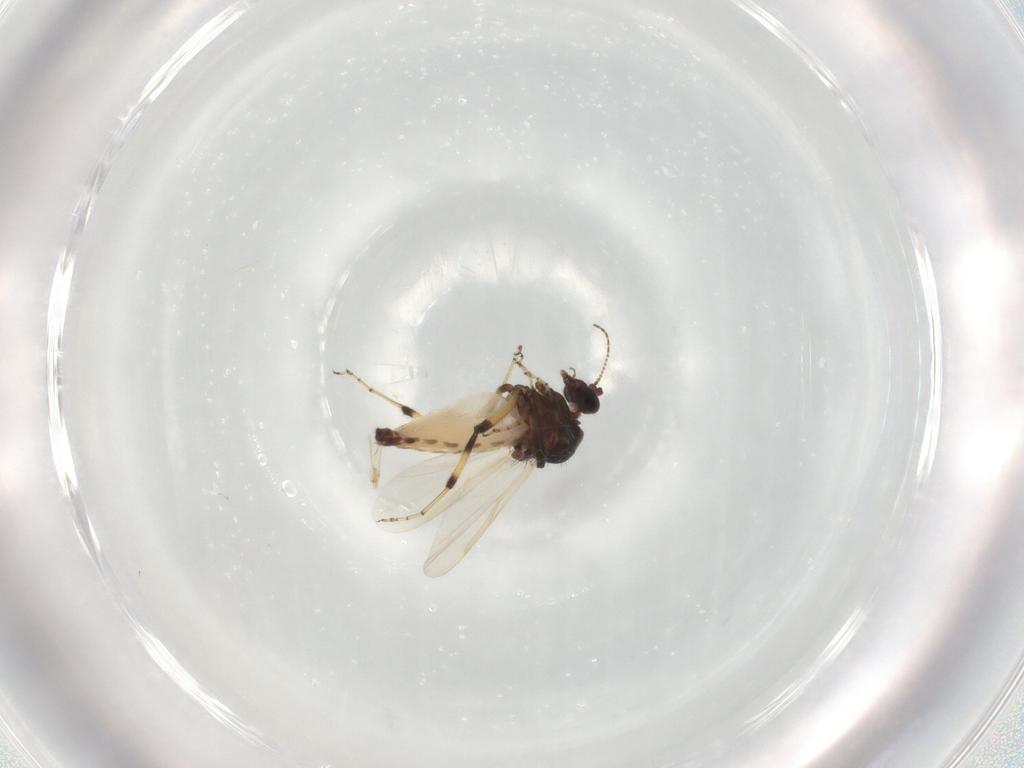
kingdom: Animalia
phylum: Arthropoda
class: Insecta
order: Diptera
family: Ceratopogonidae
